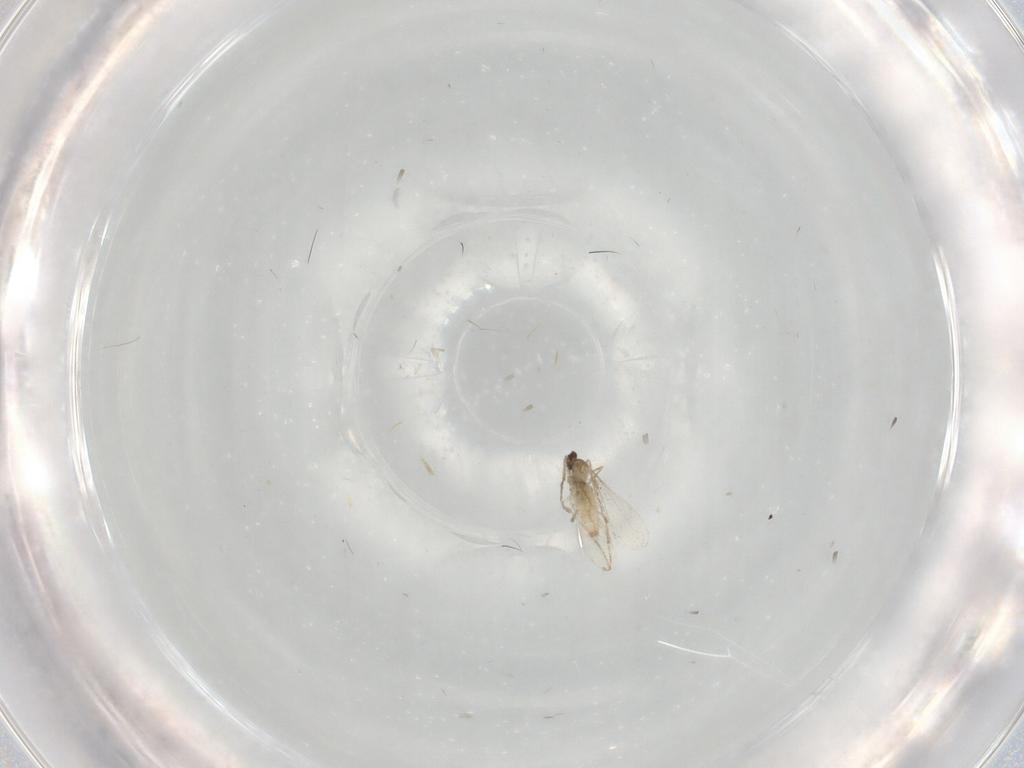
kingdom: Animalia
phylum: Arthropoda
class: Insecta
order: Diptera
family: Cecidomyiidae
